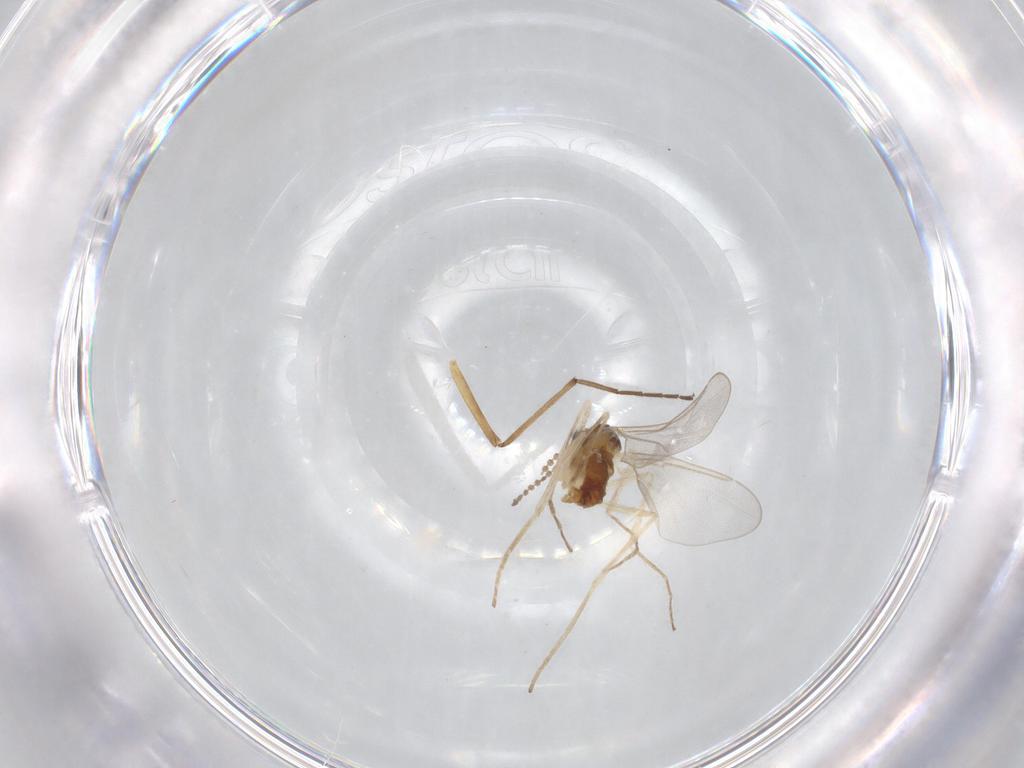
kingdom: Animalia
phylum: Arthropoda
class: Insecta
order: Diptera
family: Cecidomyiidae
